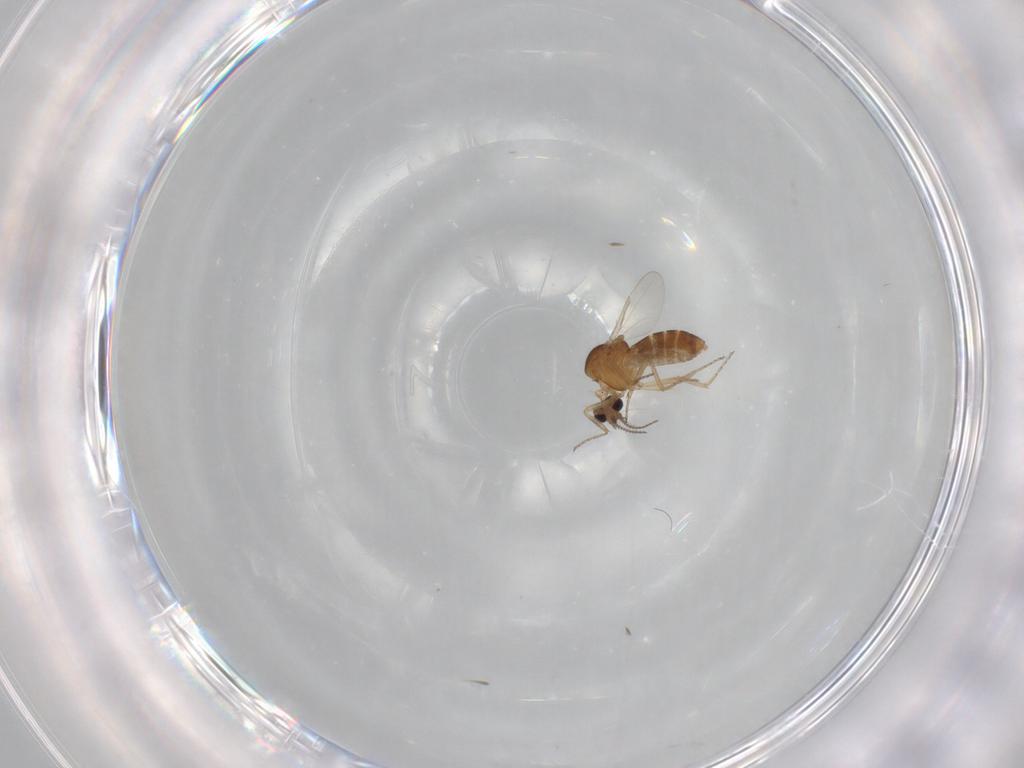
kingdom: Animalia
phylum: Arthropoda
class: Insecta
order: Diptera
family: Ceratopogonidae
